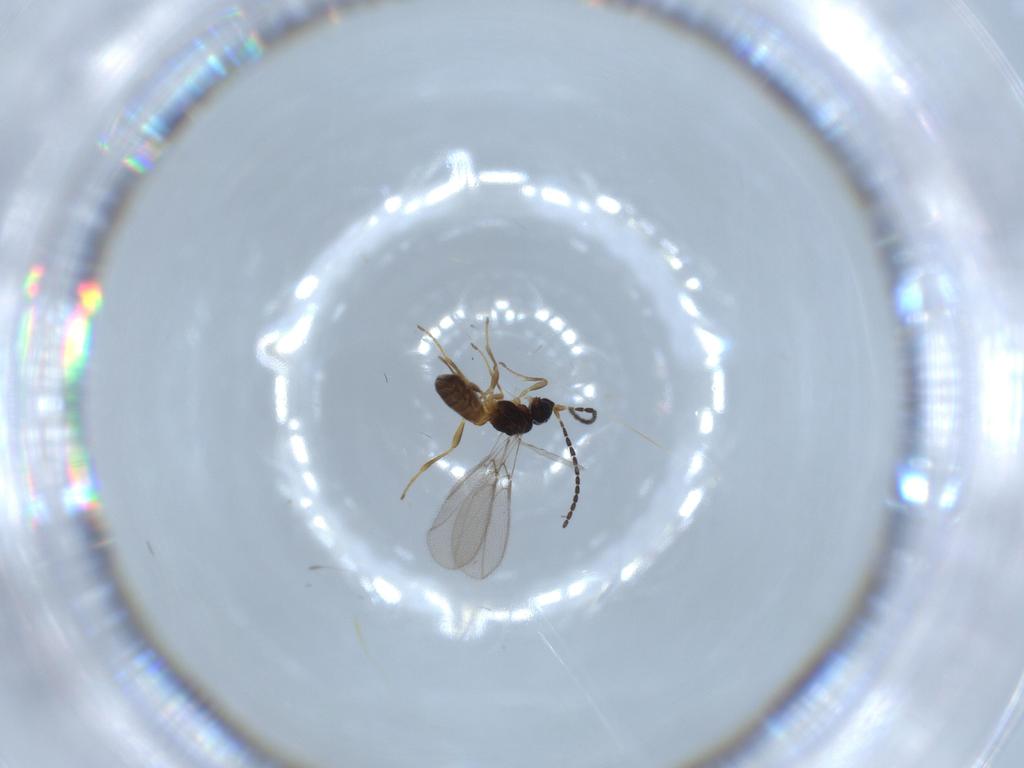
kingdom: Animalia
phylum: Arthropoda
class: Insecta
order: Hymenoptera
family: Braconidae
